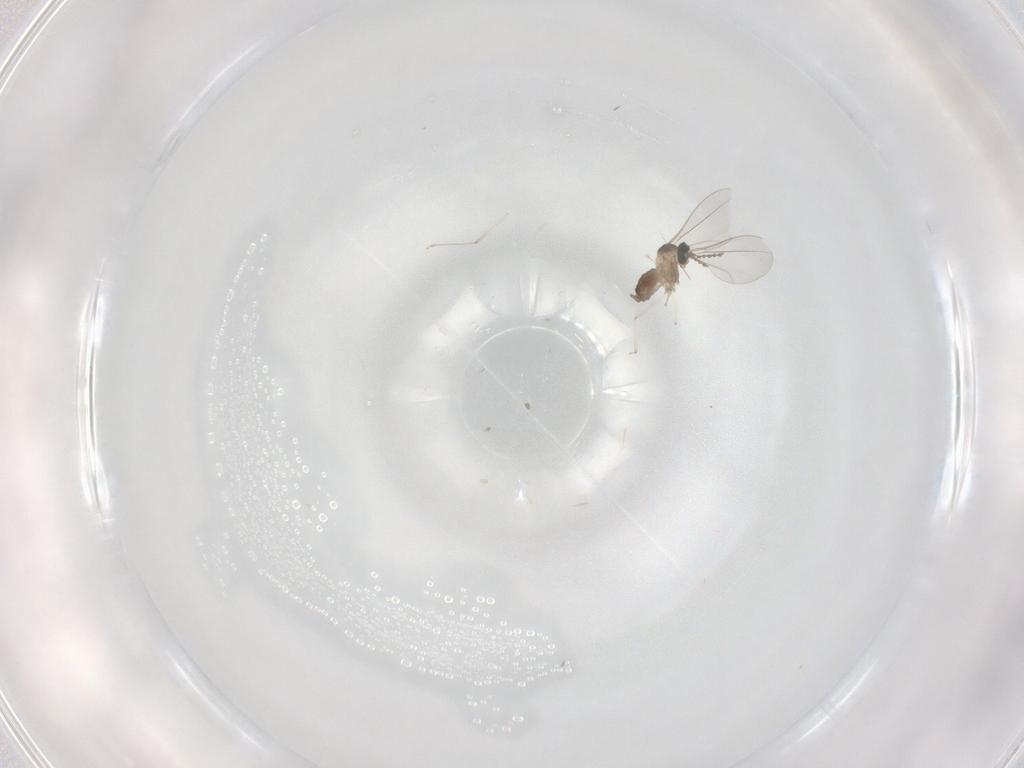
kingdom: Animalia
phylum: Arthropoda
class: Insecta
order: Diptera
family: Cecidomyiidae
